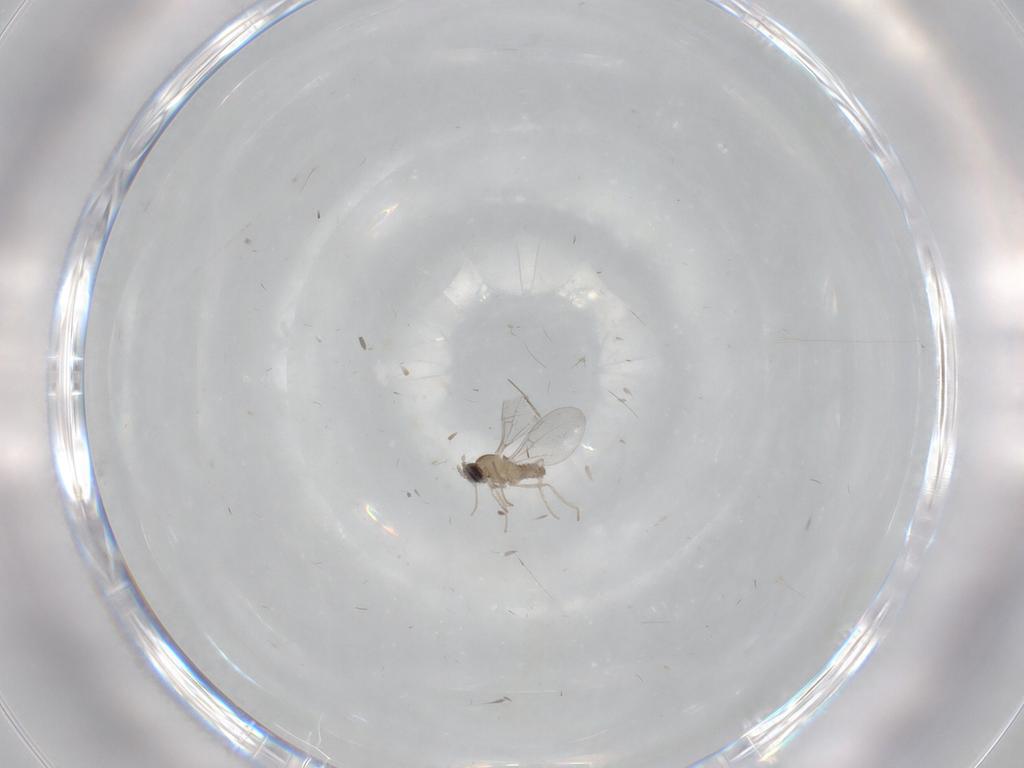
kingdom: Animalia
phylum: Arthropoda
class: Insecta
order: Diptera
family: Cecidomyiidae
